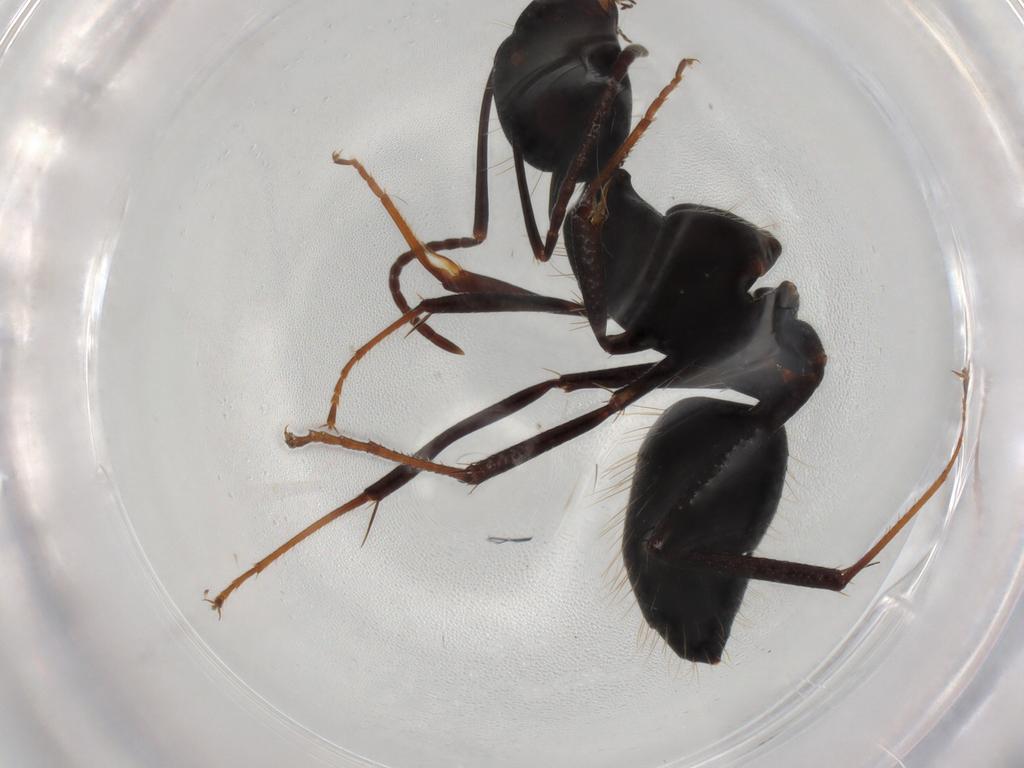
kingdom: Animalia
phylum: Arthropoda
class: Insecta
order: Hymenoptera
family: Formicidae
